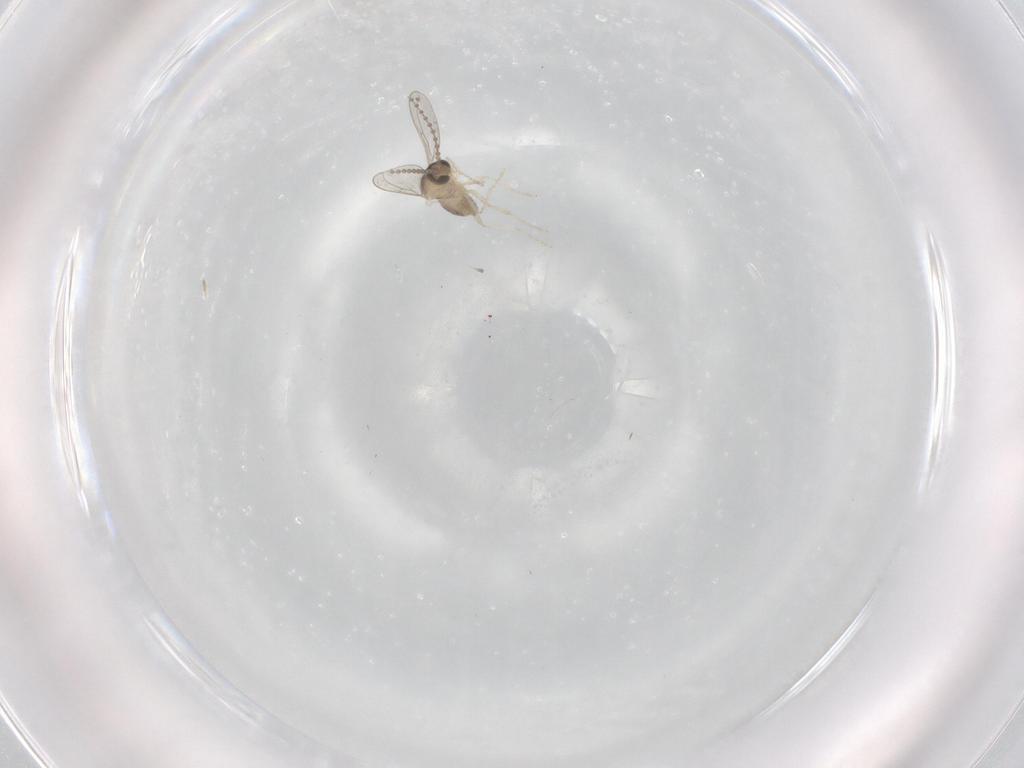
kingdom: Animalia
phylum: Arthropoda
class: Insecta
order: Diptera
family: Cecidomyiidae
